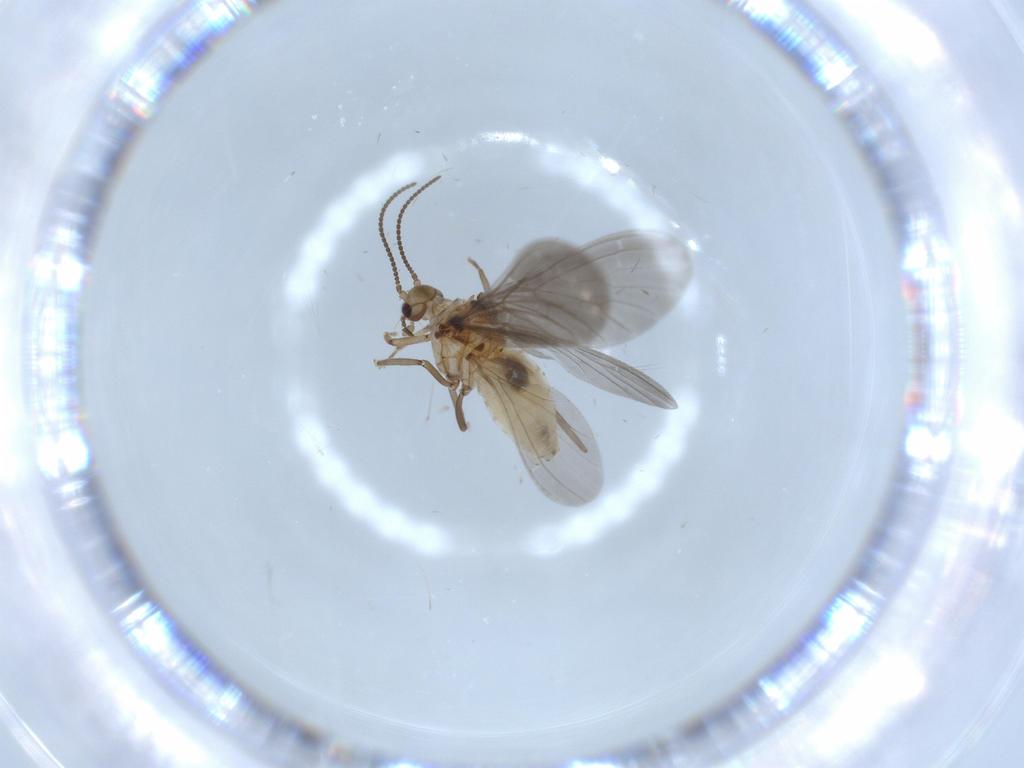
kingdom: Animalia
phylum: Arthropoda
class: Insecta
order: Neuroptera
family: Coniopterygidae
